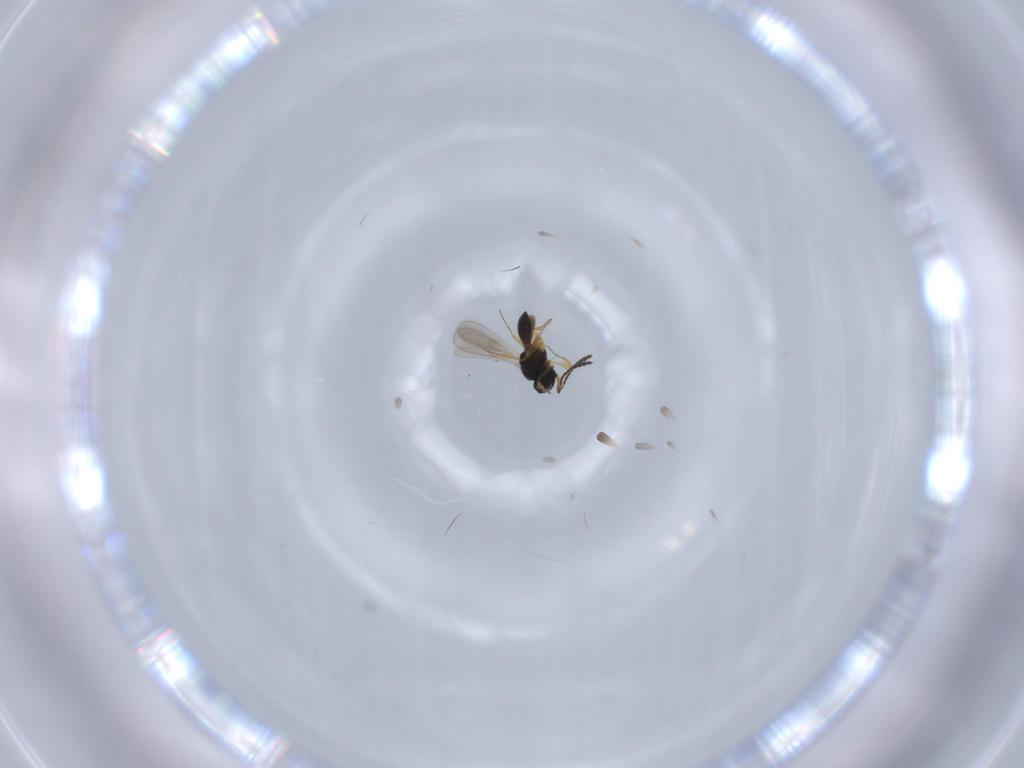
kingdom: Animalia
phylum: Arthropoda
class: Insecta
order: Hymenoptera
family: Scelionidae
